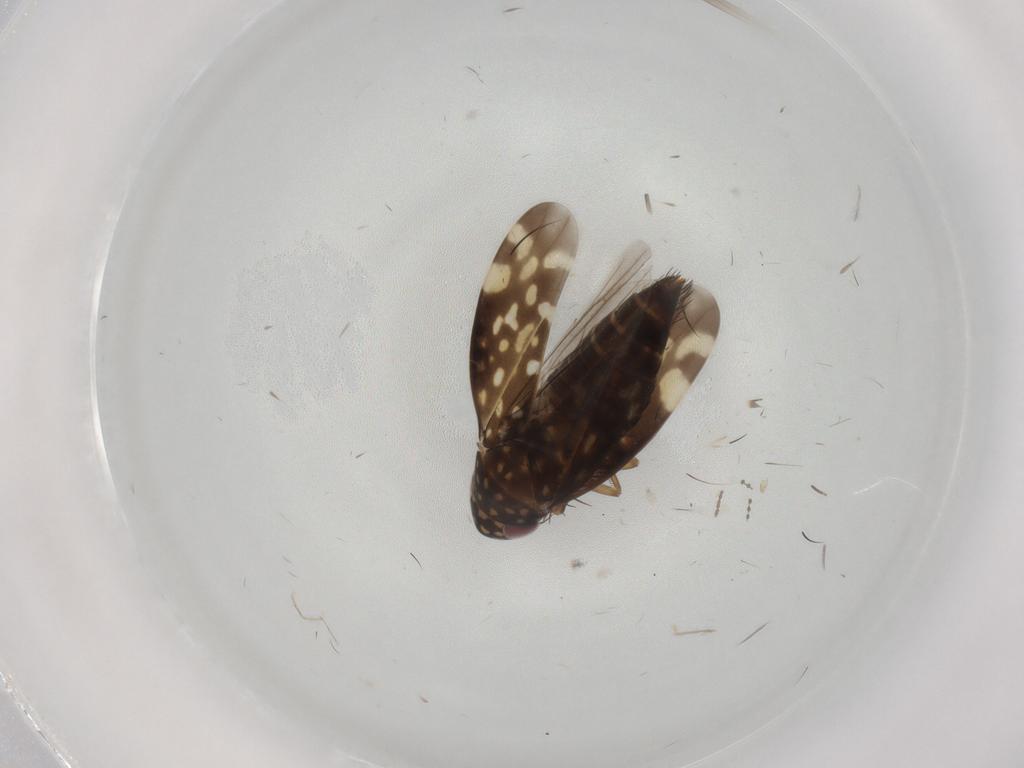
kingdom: Animalia
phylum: Arthropoda
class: Insecta
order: Hemiptera
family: Cicadellidae
